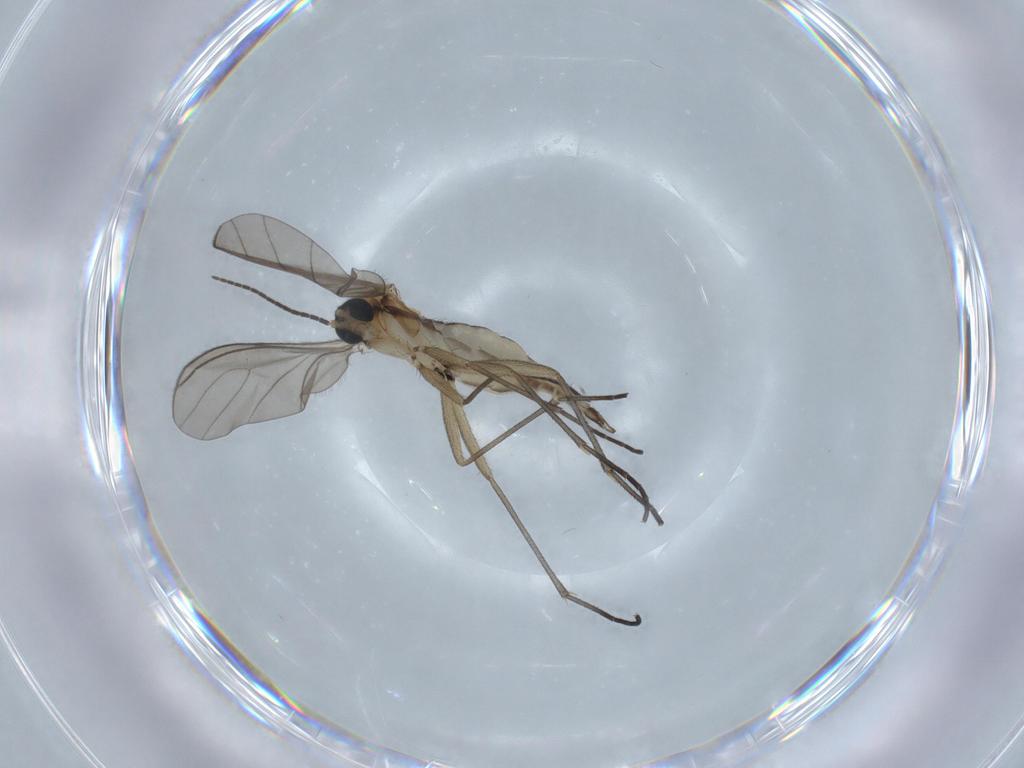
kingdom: Animalia
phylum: Arthropoda
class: Insecta
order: Diptera
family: Sciaridae
